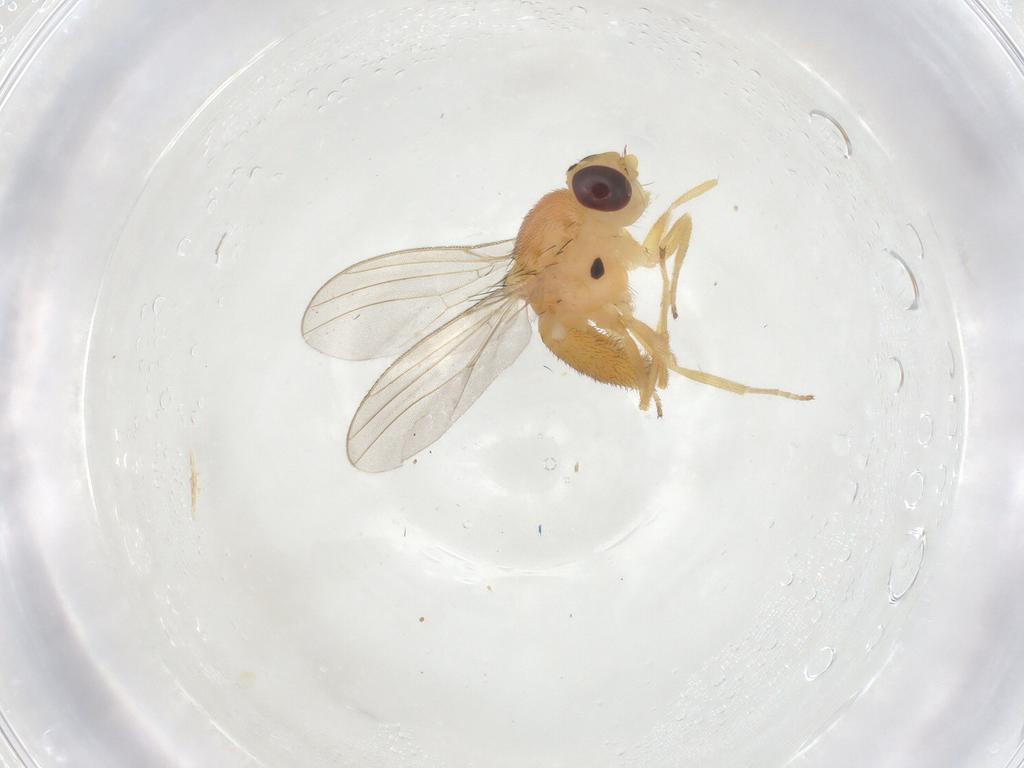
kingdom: Animalia
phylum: Arthropoda
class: Insecta
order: Diptera
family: Chloropidae
